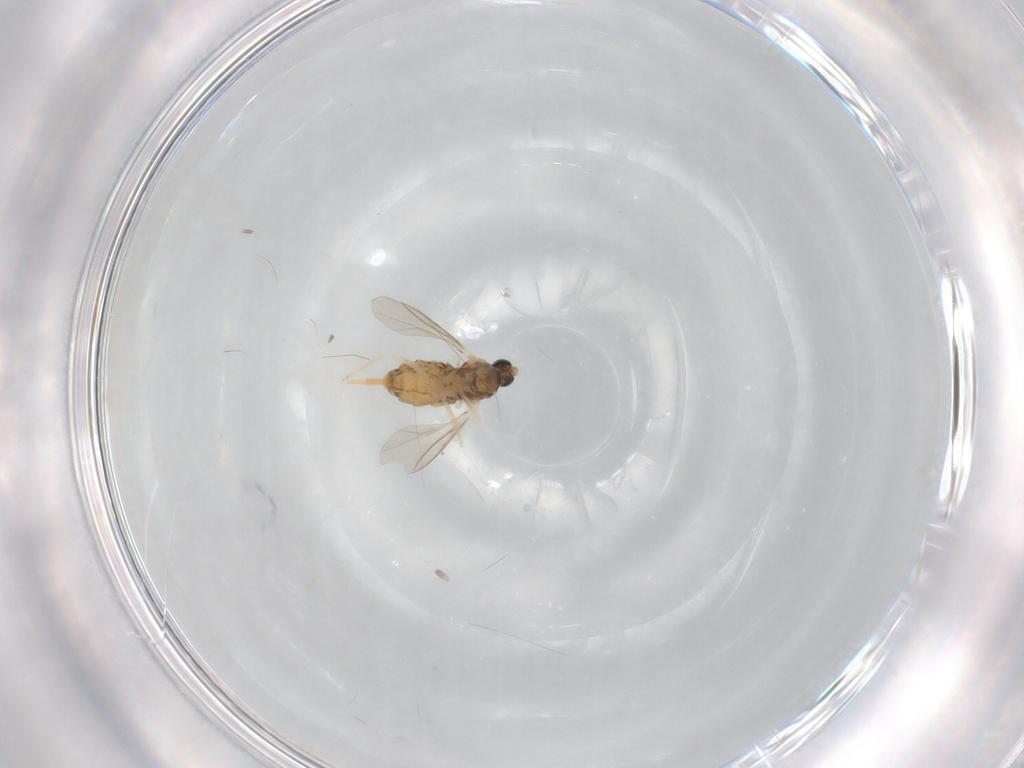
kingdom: Animalia
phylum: Arthropoda
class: Insecta
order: Diptera
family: Cecidomyiidae
